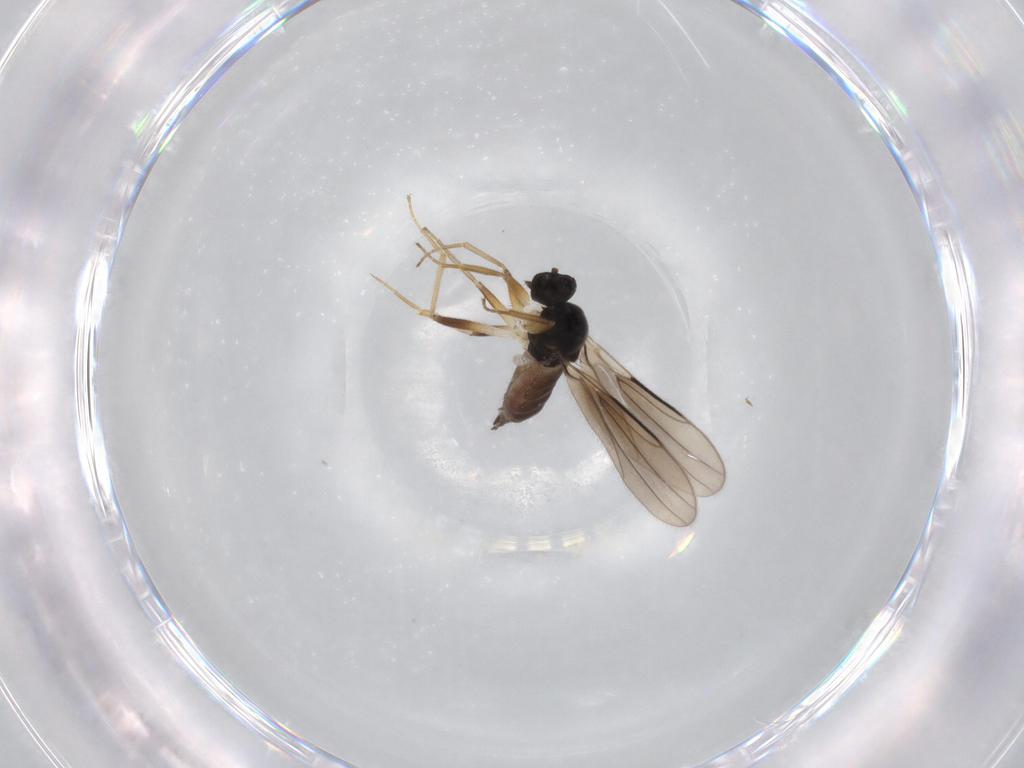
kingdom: Animalia
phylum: Arthropoda
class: Insecta
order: Diptera
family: Hybotidae
